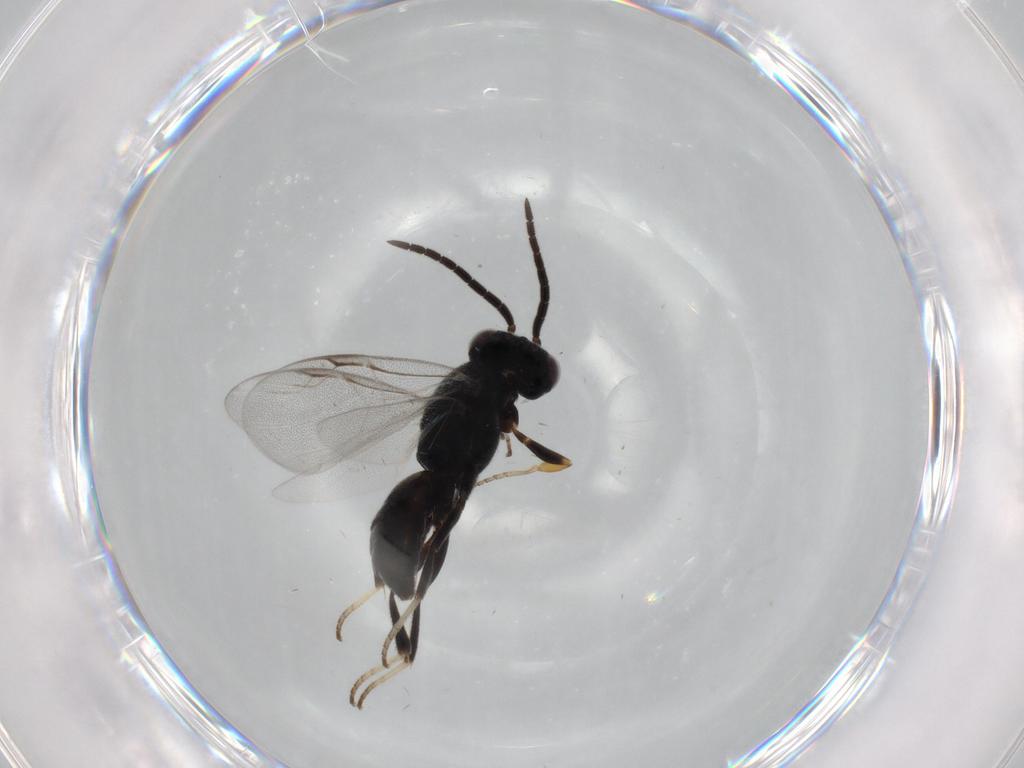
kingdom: Animalia
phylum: Arthropoda
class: Insecta
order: Hymenoptera
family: Dryinidae
